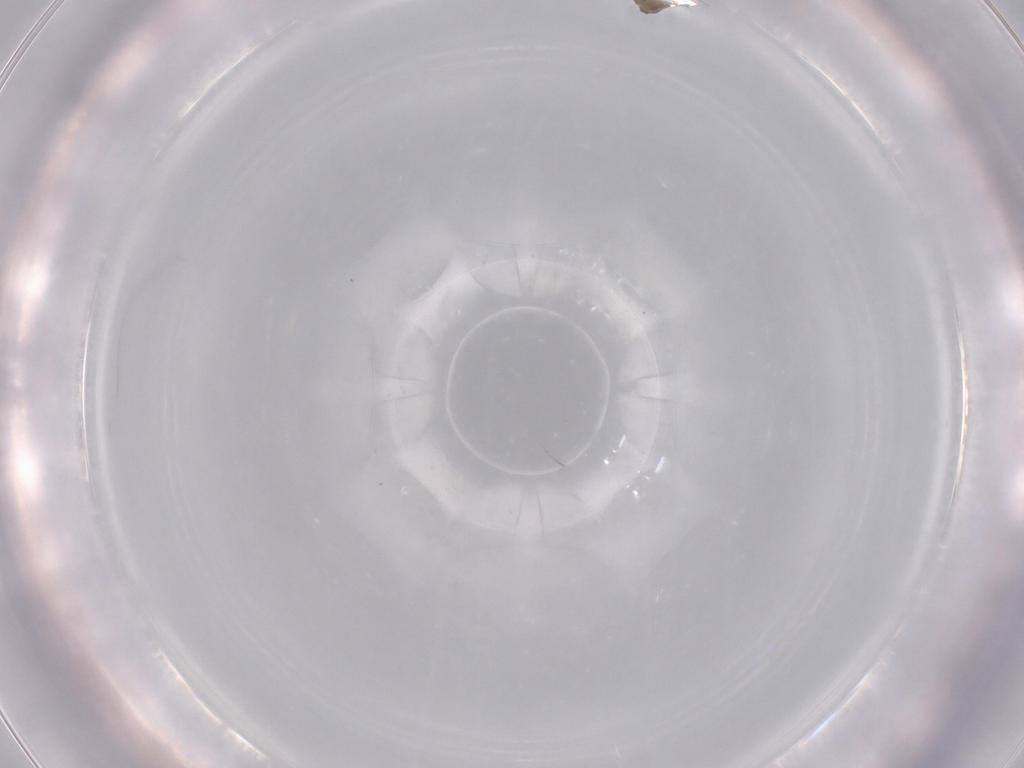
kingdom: Animalia
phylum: Arthropoda
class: Insecta
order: Diptera
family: Cecidomyiidae
